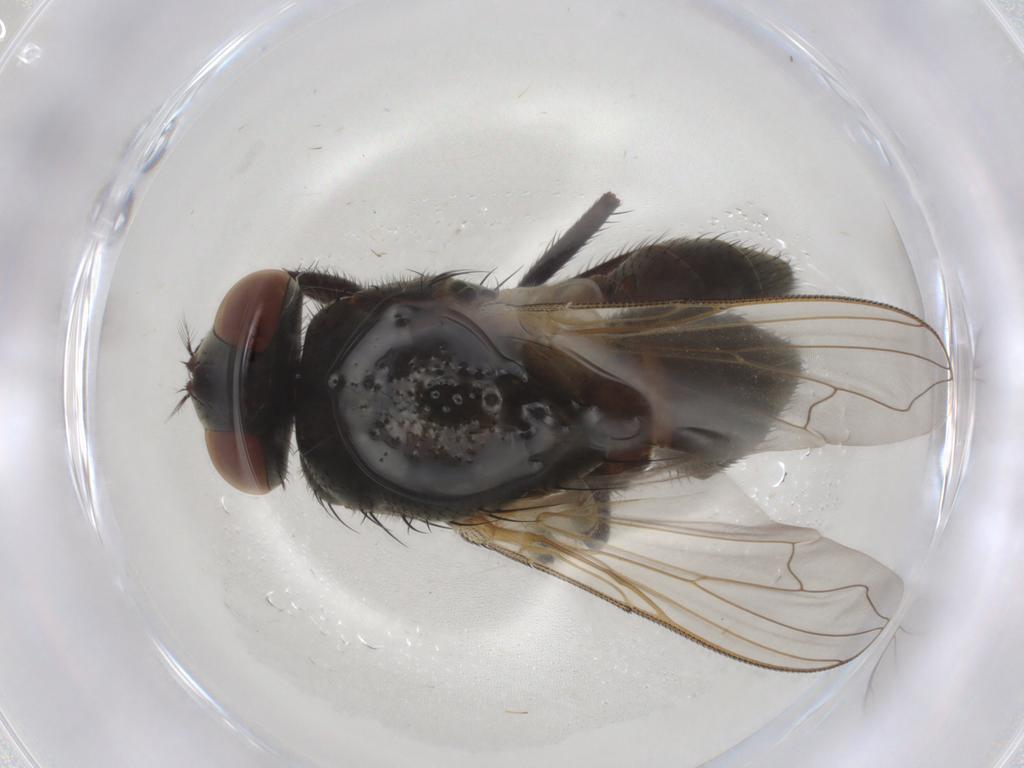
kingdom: Animalia
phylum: Arthropoda
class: Insecta
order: Diptera
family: Muscidae
